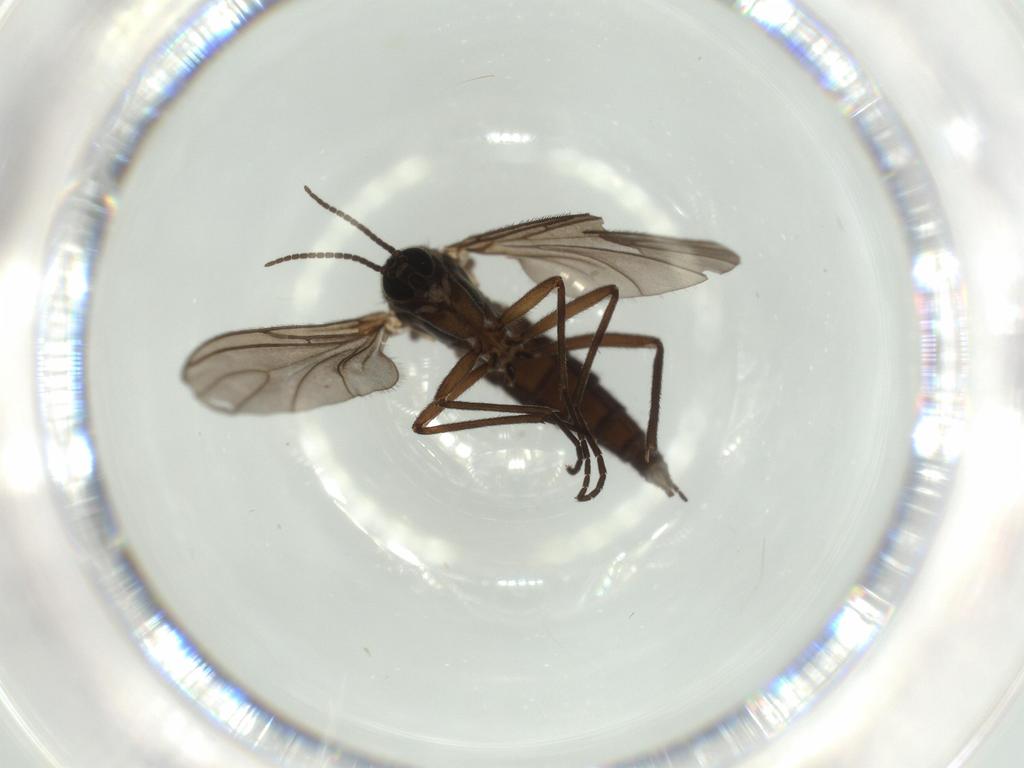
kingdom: Animalia
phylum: Arthropoda
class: Insecta
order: Diptera
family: Sciaridae
